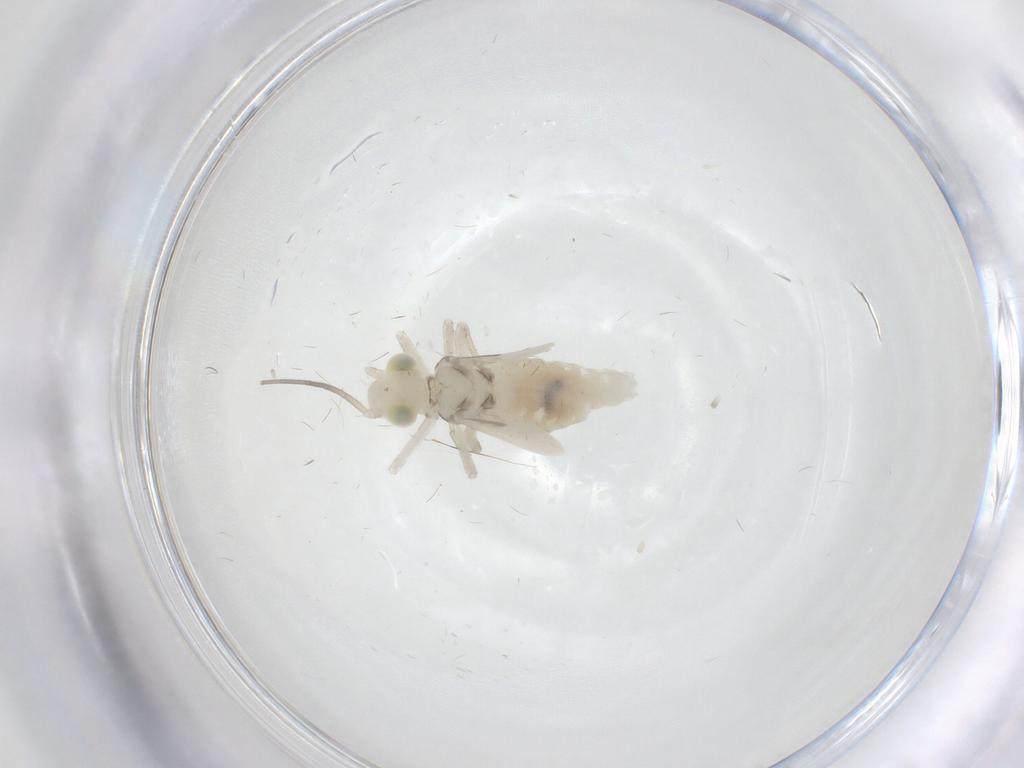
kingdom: Animalia
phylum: Arthropoda
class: Insecta
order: Psocodea
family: Caeciliusidae
